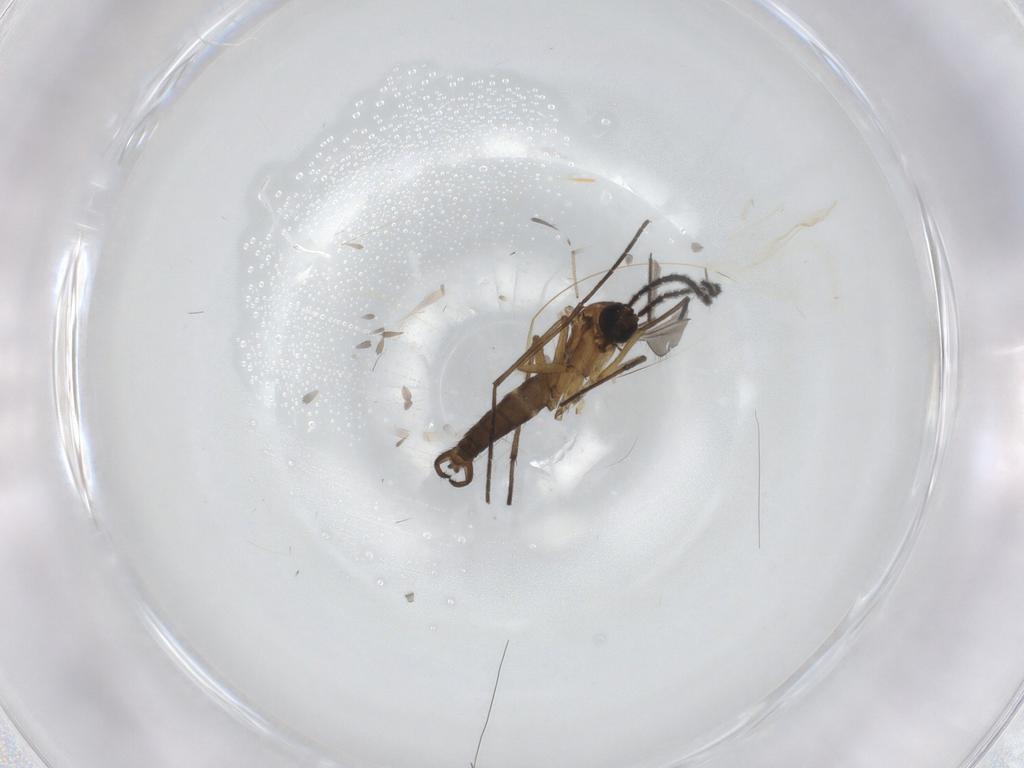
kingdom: Animalia
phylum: Arthropoda
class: Insecta
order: Diptera
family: Sciaridae
